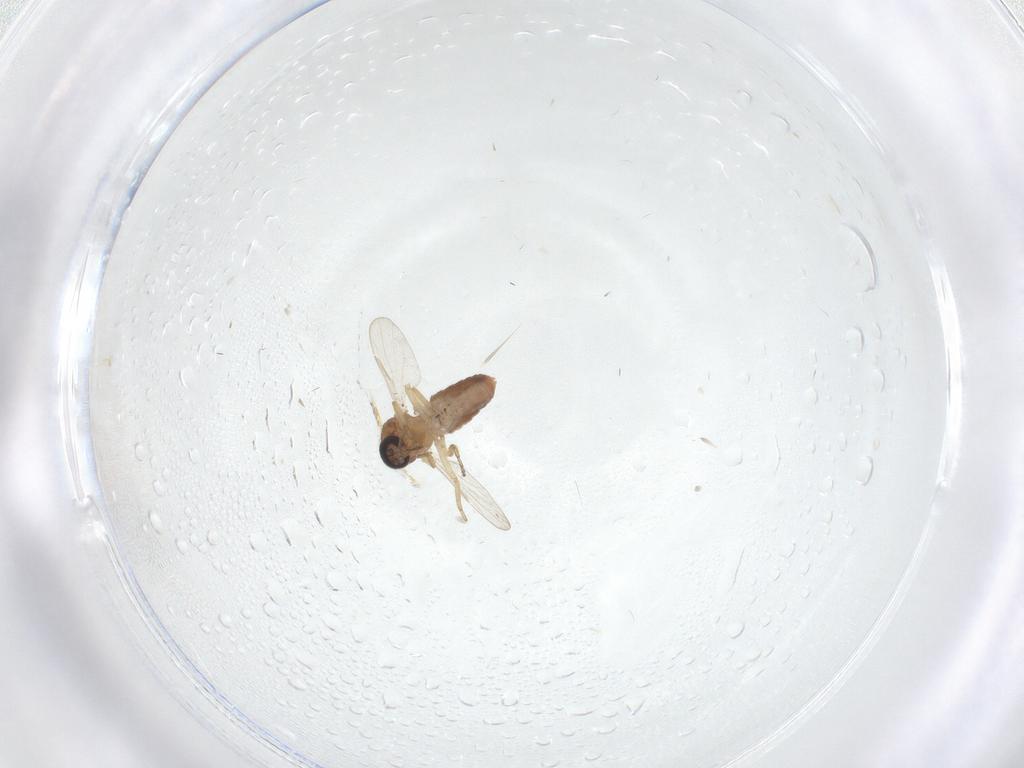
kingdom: Animalia
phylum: Arthropoda
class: Insecta
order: Diptera
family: Ceratopogonidae
